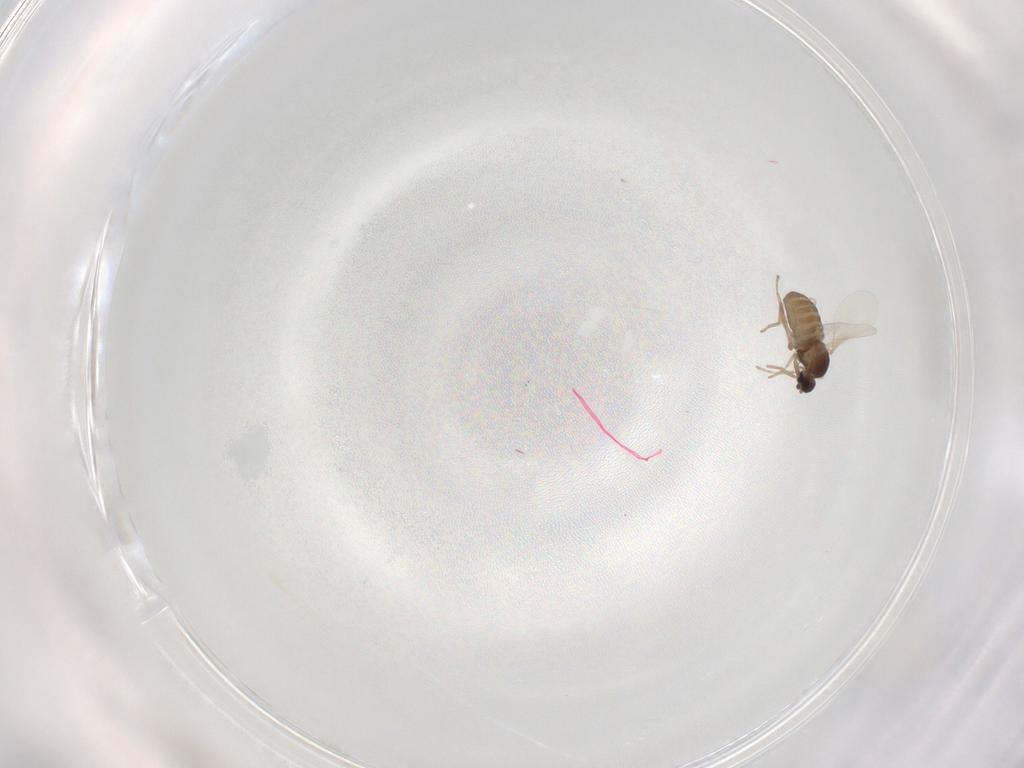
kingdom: Animalia
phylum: Arthropoda
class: Insecta
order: Diptera
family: Cecidomyiidae
